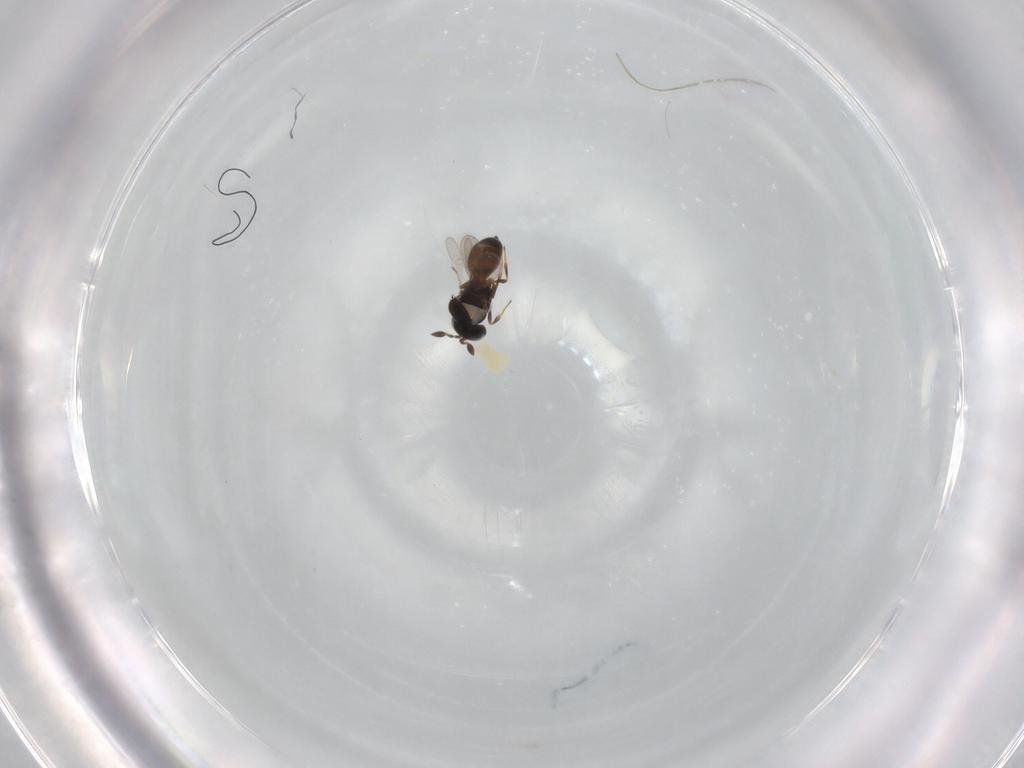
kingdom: Animalia
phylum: Arthropoda
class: Insecta
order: Hymenoptera
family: Scelionidae
